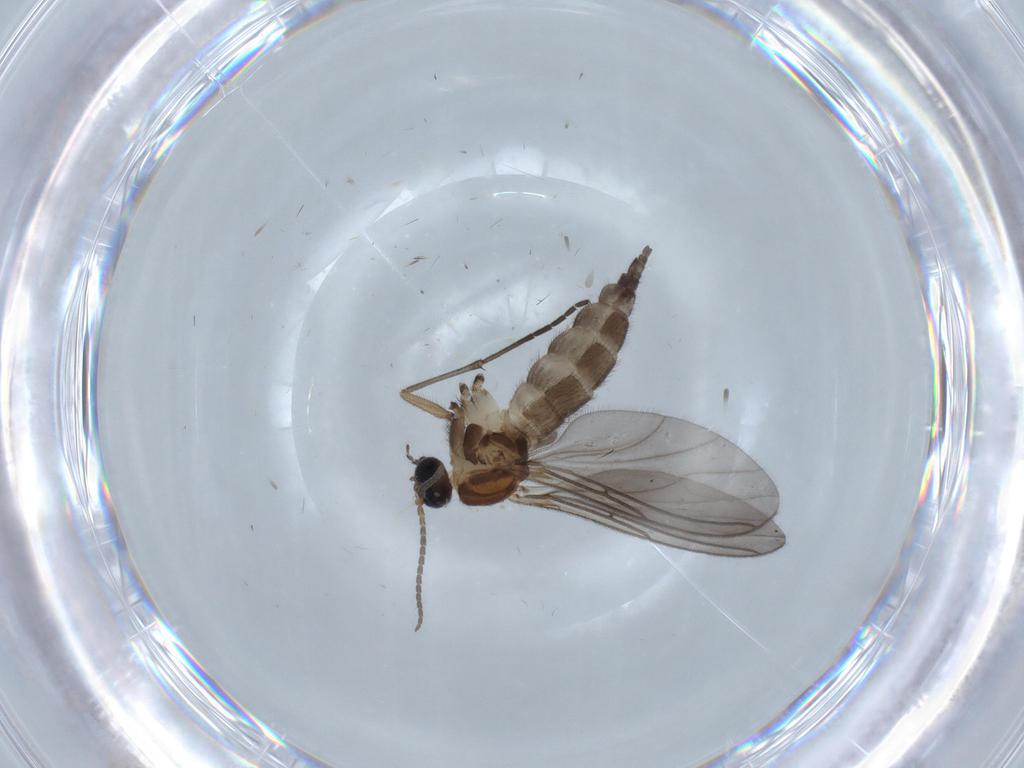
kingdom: Animalia
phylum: Arthropoda
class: Insecta
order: Diptera
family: Sciaridae
